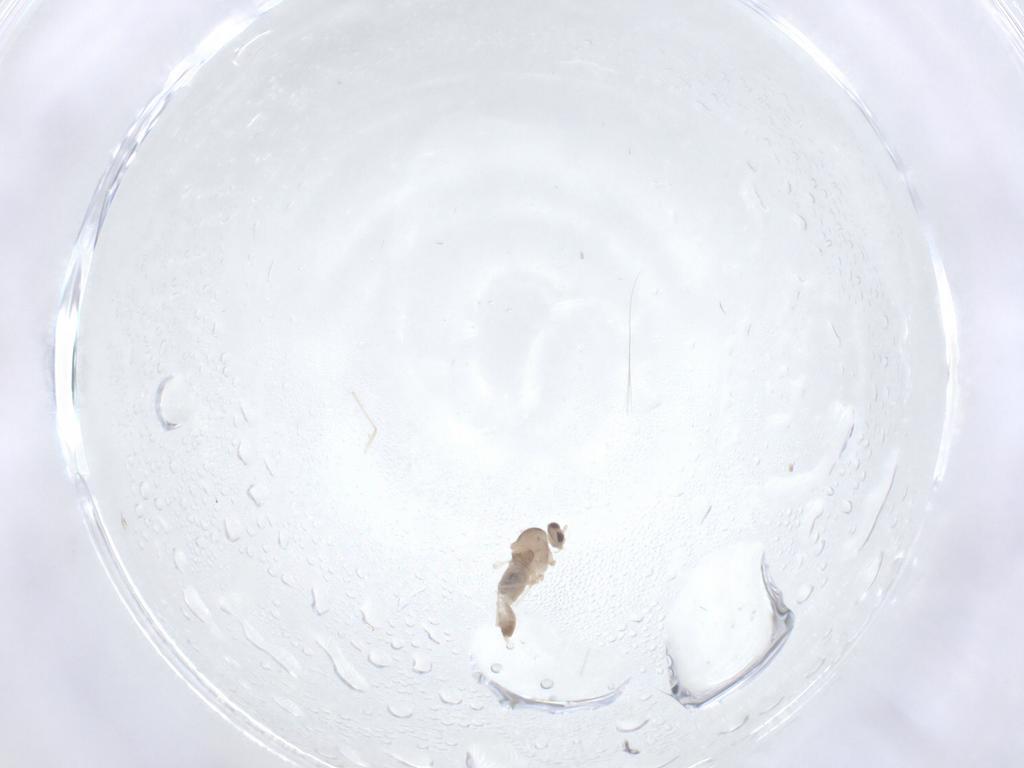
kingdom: Animalia
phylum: Arthropoda
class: Insecta
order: Diptera
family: Cecidomyiidae
